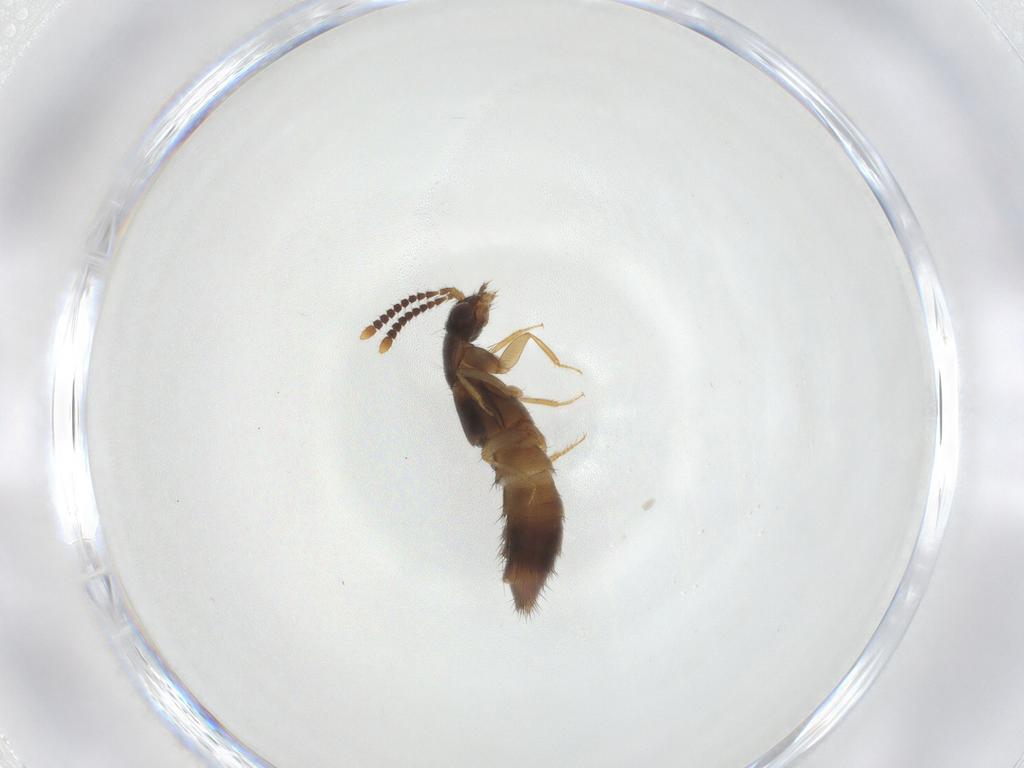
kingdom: Animalia
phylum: Arthropoda
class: Insecta
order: Coleoptera
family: Staphylinidae
